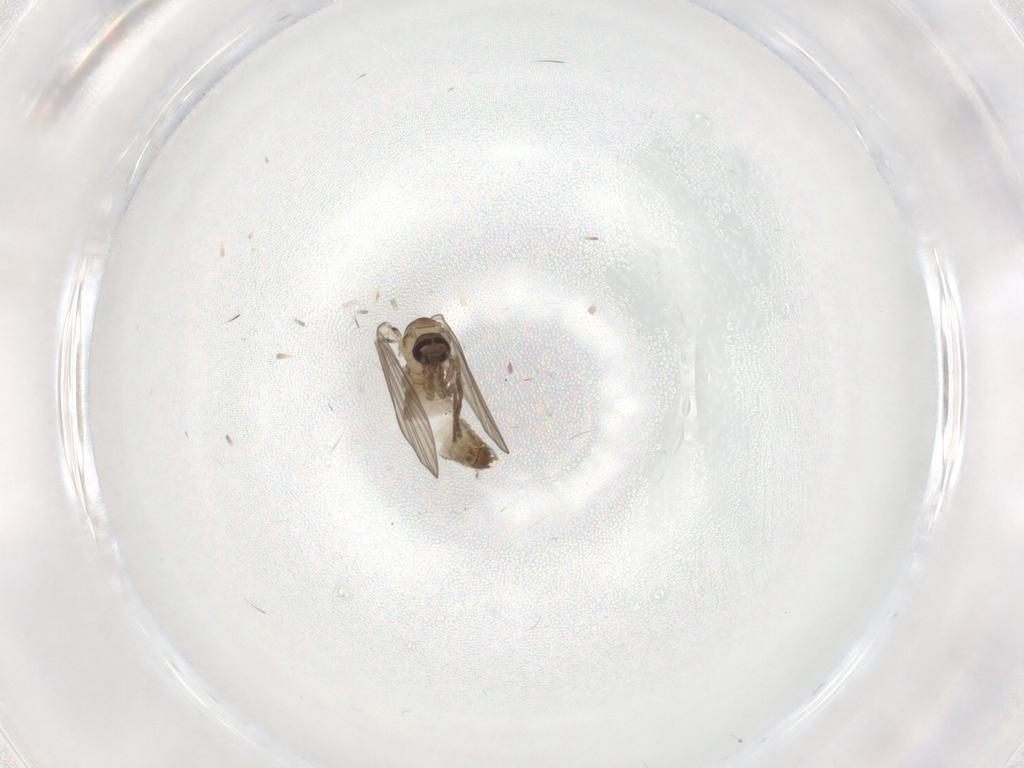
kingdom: Animalia
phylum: Arthropoda
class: Insecta
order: Diptera
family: Psychodidae
